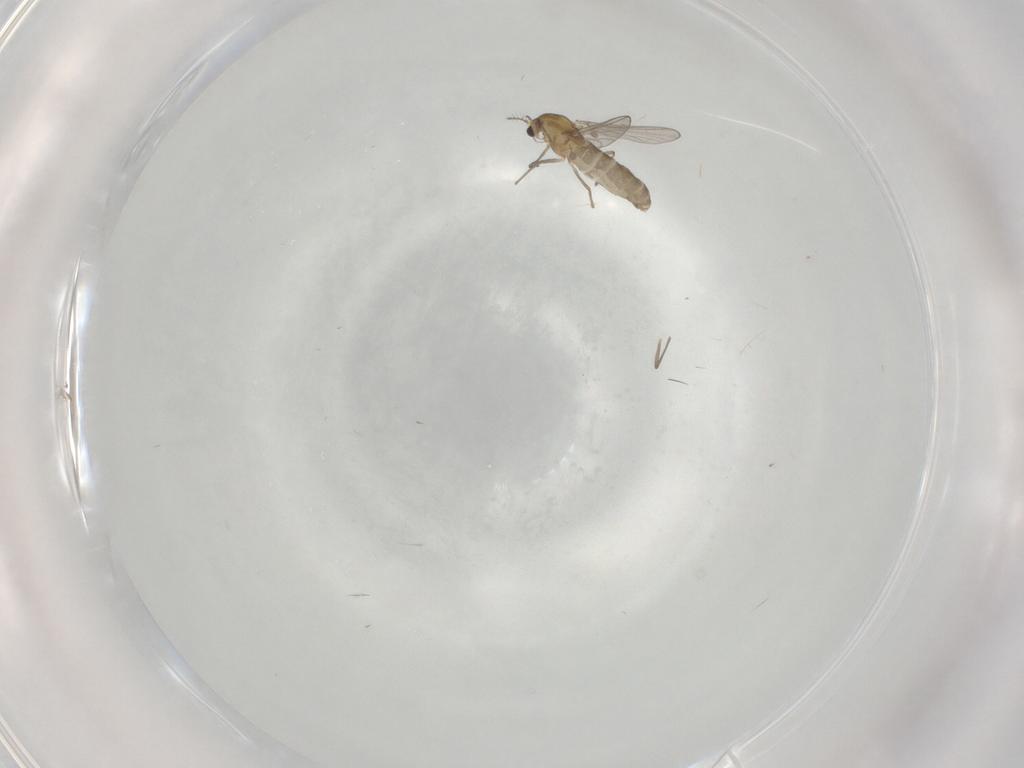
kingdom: Animalia
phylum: Arthropoda
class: Insecta
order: Diptera
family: Chironomidae
